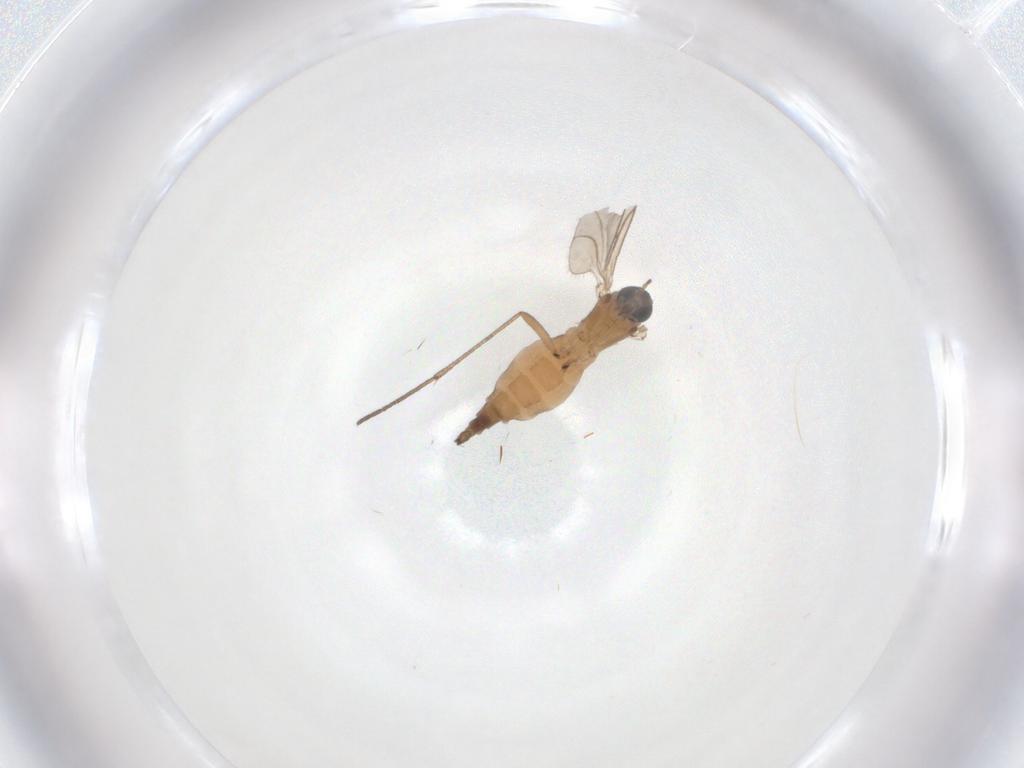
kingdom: Animalia
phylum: Arthropoda
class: Insecta
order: Diptera
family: Sciaridae
